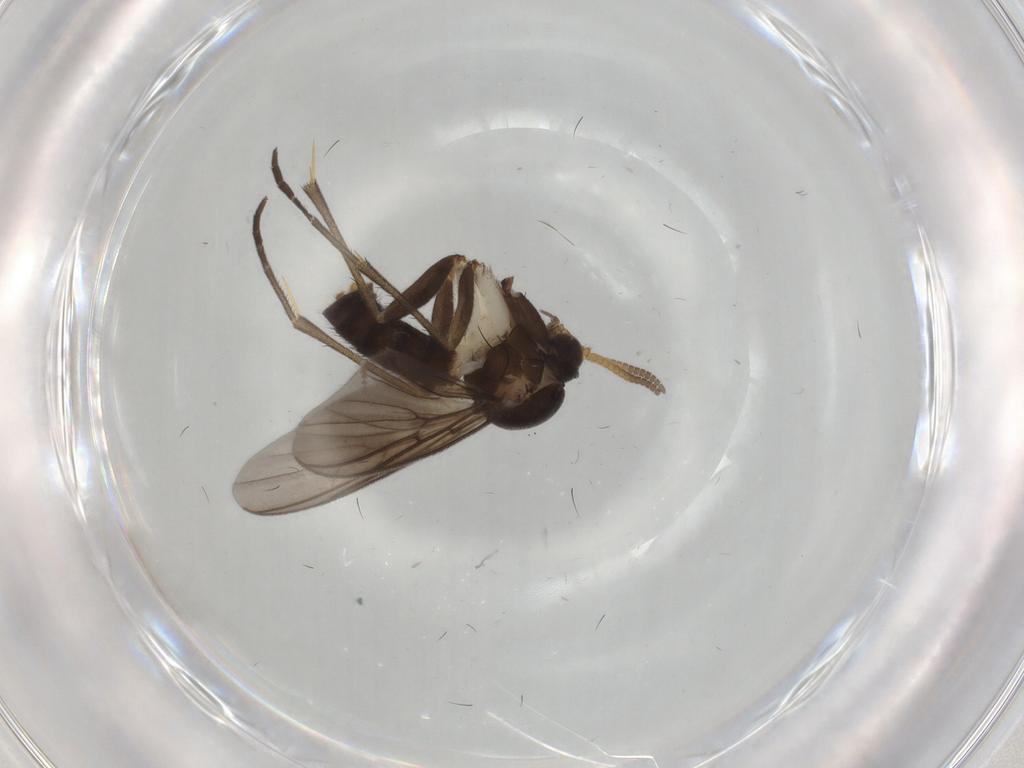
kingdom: Animalia
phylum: Arthropoda
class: Insecta
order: Diptera
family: Cecidomyiidae
